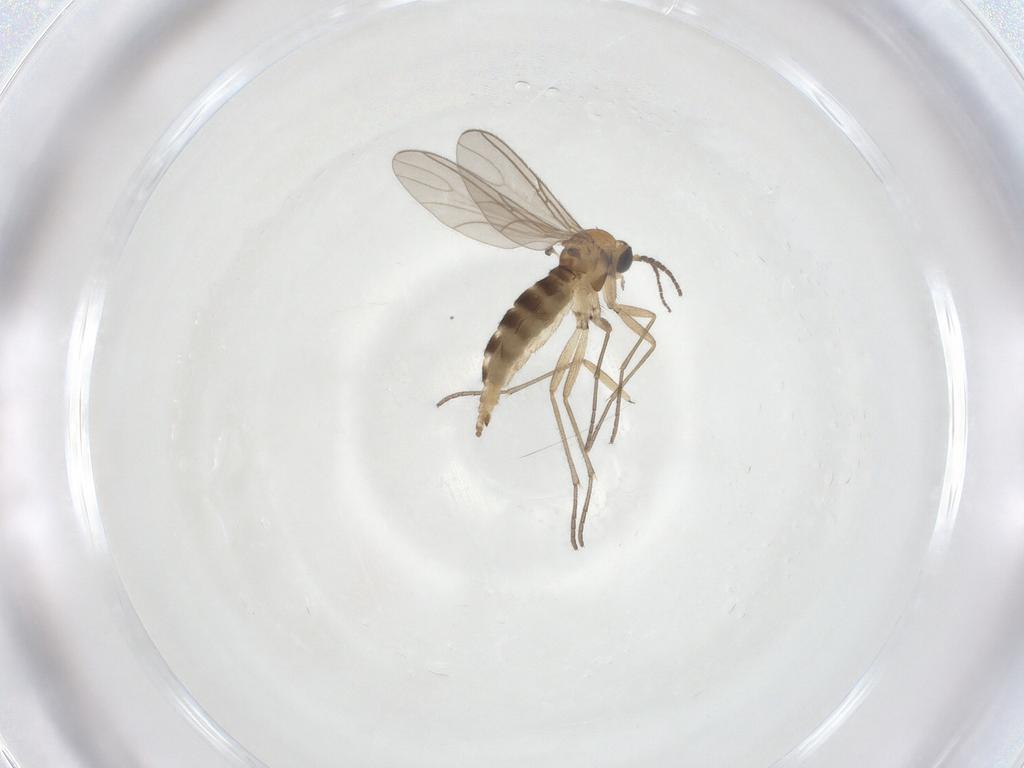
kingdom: Animalia
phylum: Arthropoda
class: Insecta
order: Diptera
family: Sciaridae
